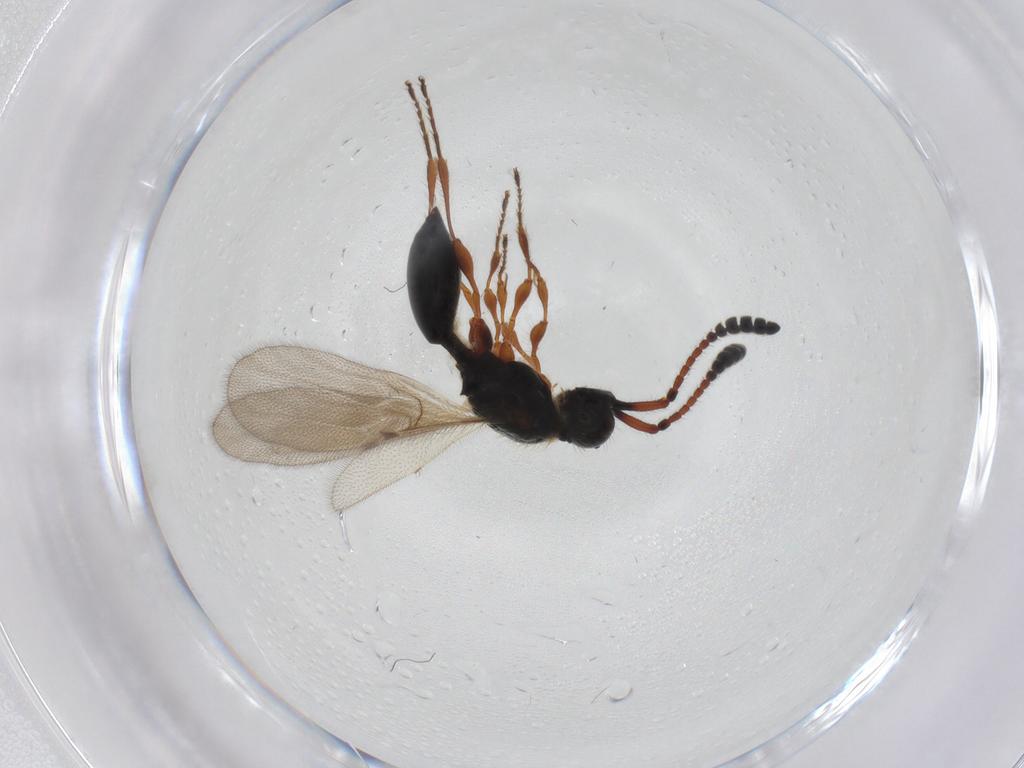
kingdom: Animalia
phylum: Arthropoda
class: Insecta
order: Hymenoptera
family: Diapriidae
